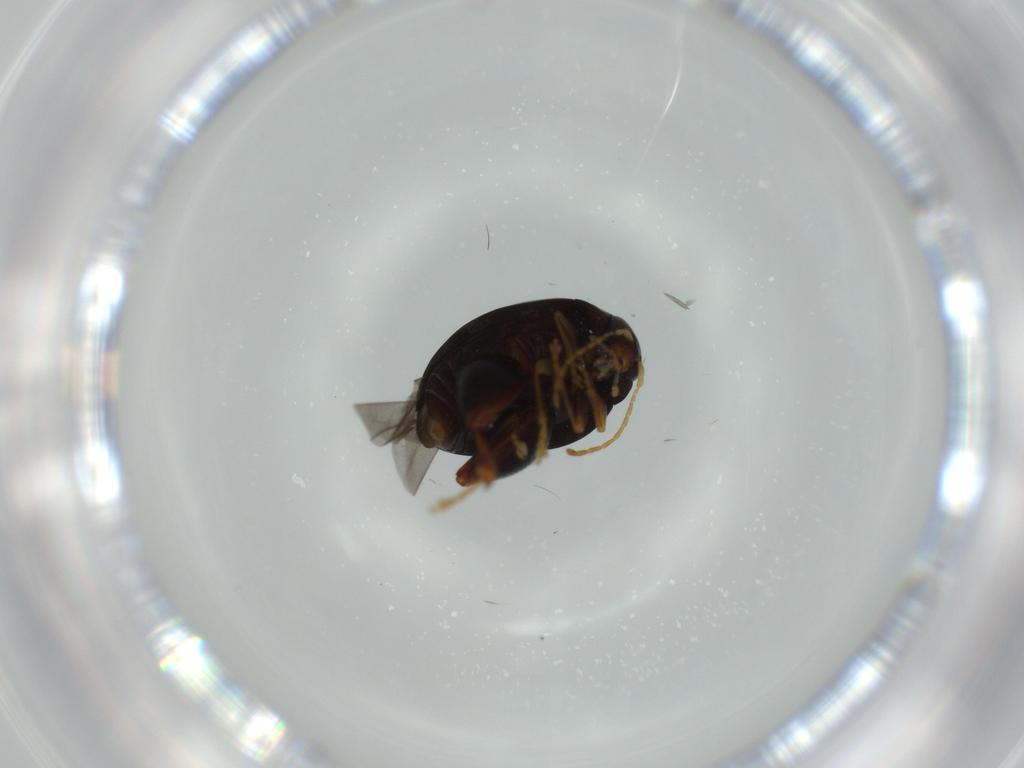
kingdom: Animalia
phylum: Arthropoda
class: Insecta
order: Coleoptera
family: Chrysomelidae
